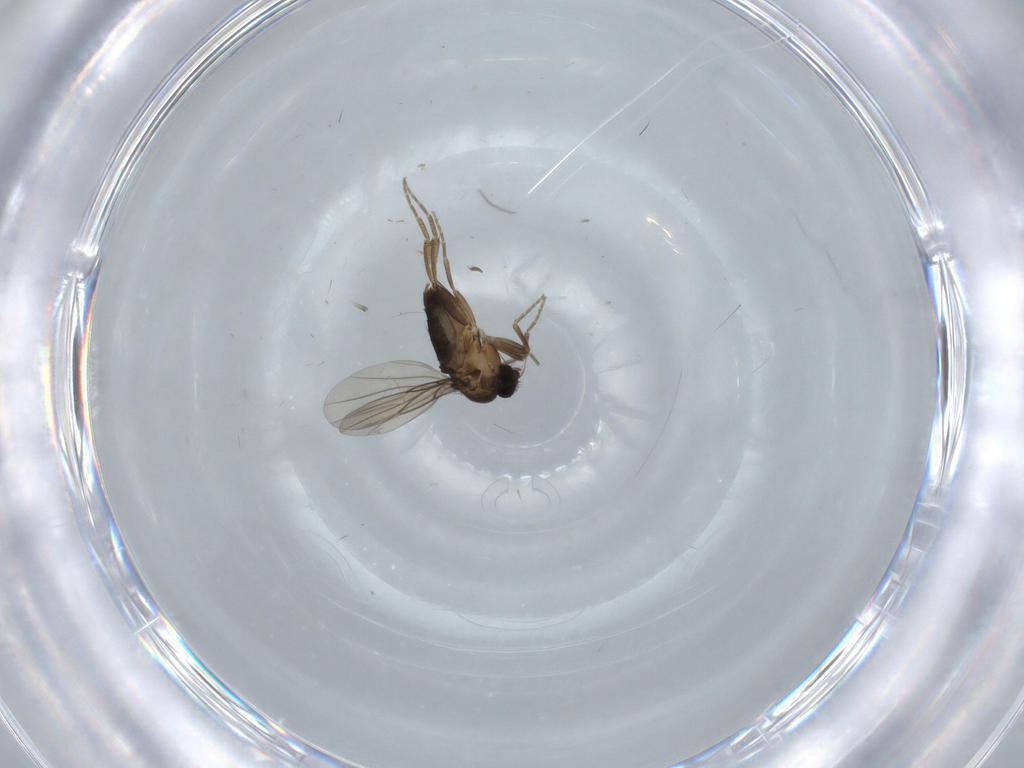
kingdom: Animalia
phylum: Arthropoda
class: Insecta
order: Diptera
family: Phoridae
